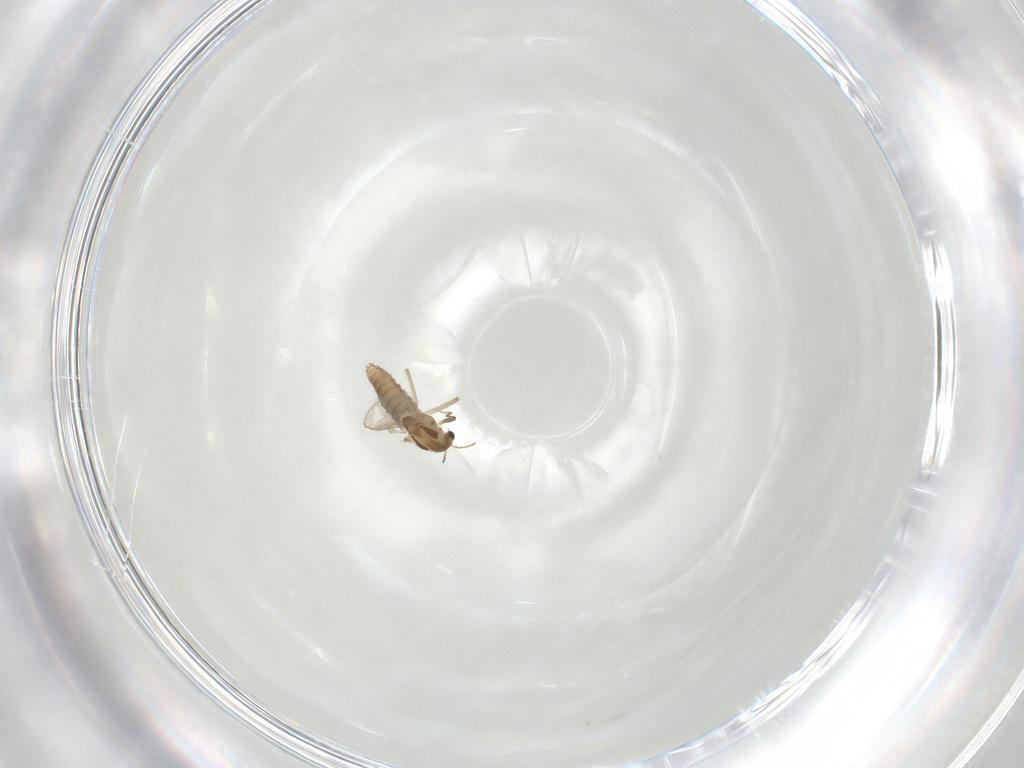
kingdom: Animalia
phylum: Arthropoda
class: Insecta
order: Diptera
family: Chironomidae
